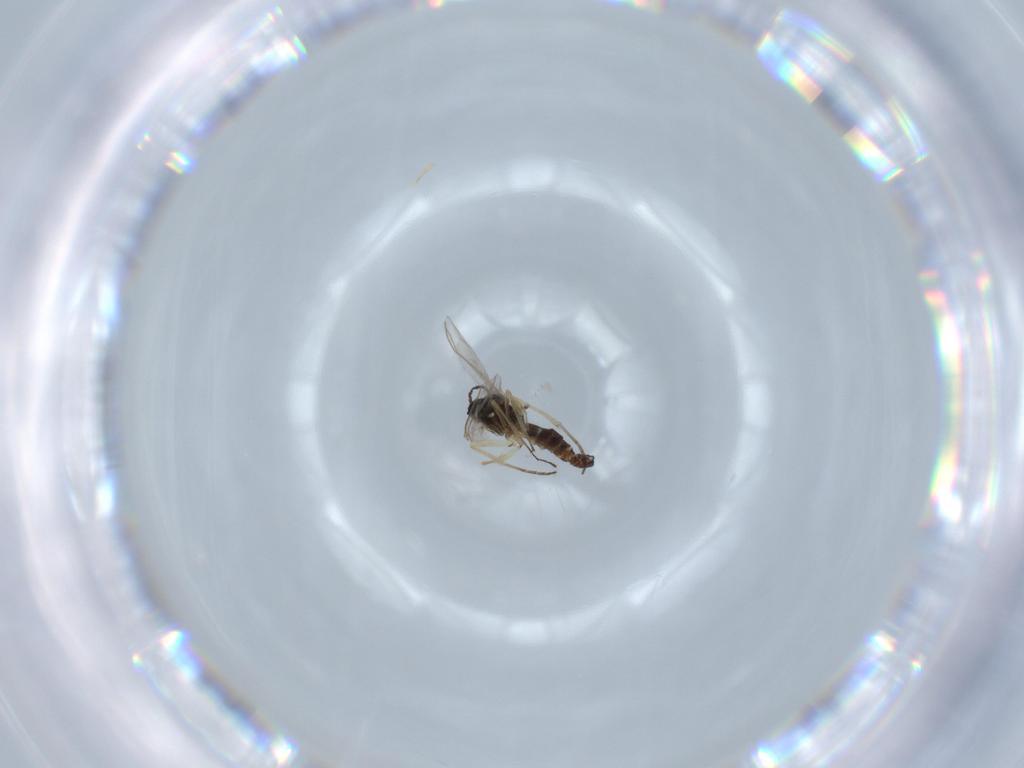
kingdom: Animalia
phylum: Arthropoda
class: Insecta
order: Diptera
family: Sciaridae
